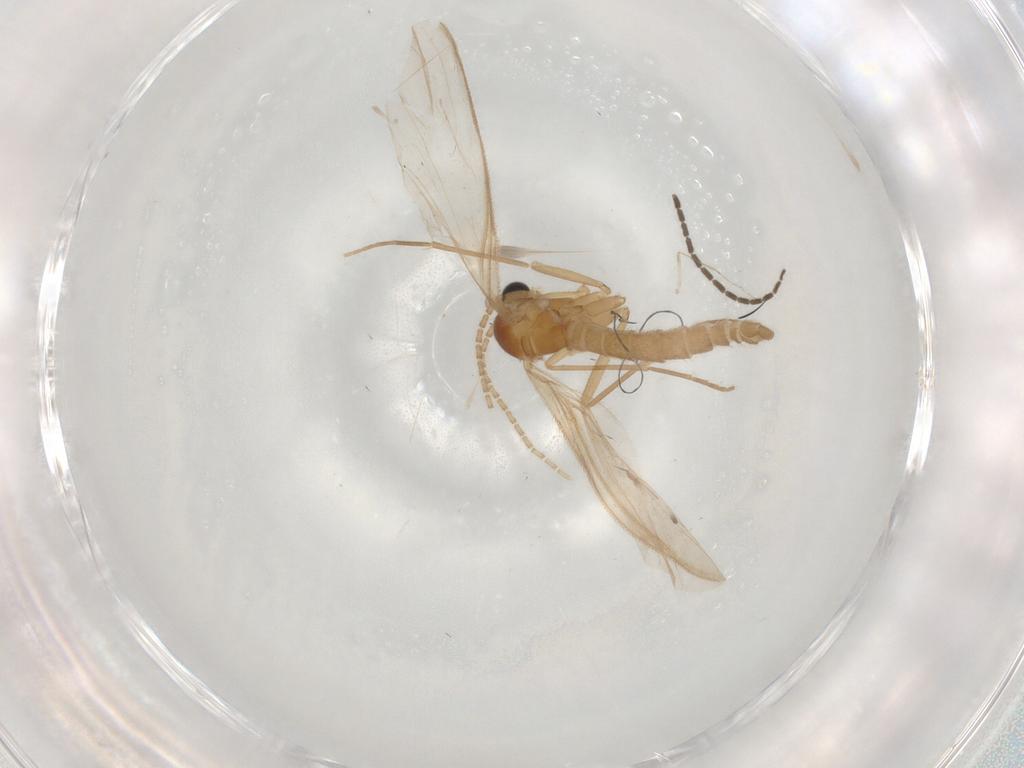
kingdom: Animalia
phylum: Arthropoda
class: Insecta
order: Diptera
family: Sciaridae
